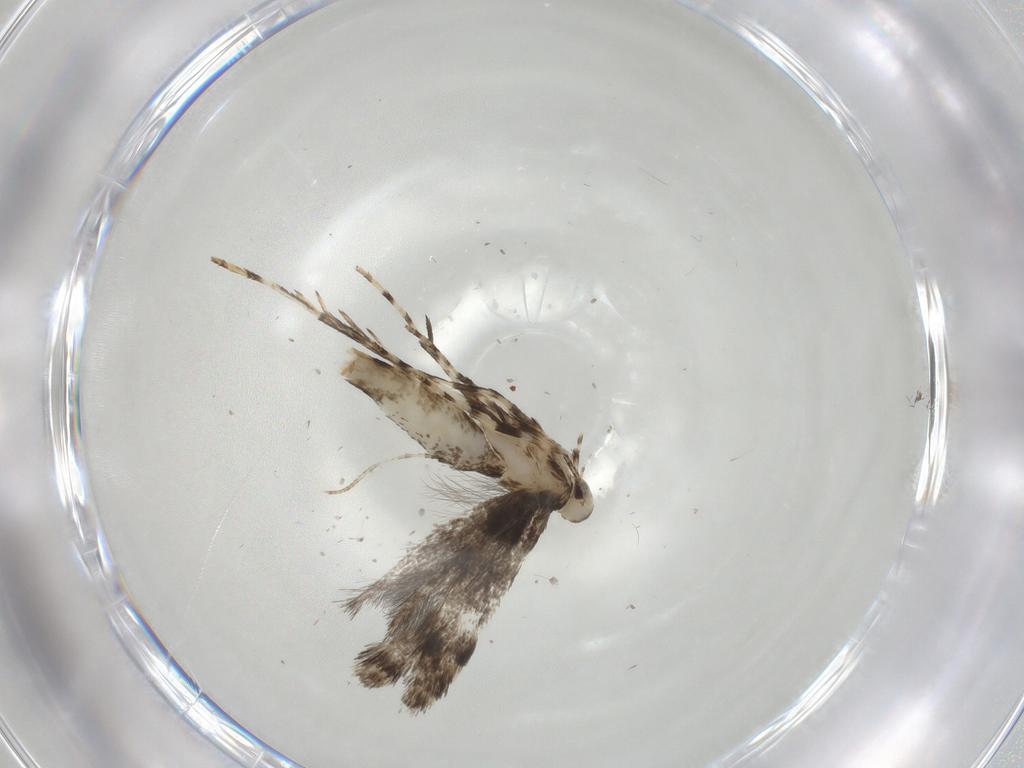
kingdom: Animalia
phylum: Arthropoda
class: Insecta
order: Lepidoptera
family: Gracillariidae
